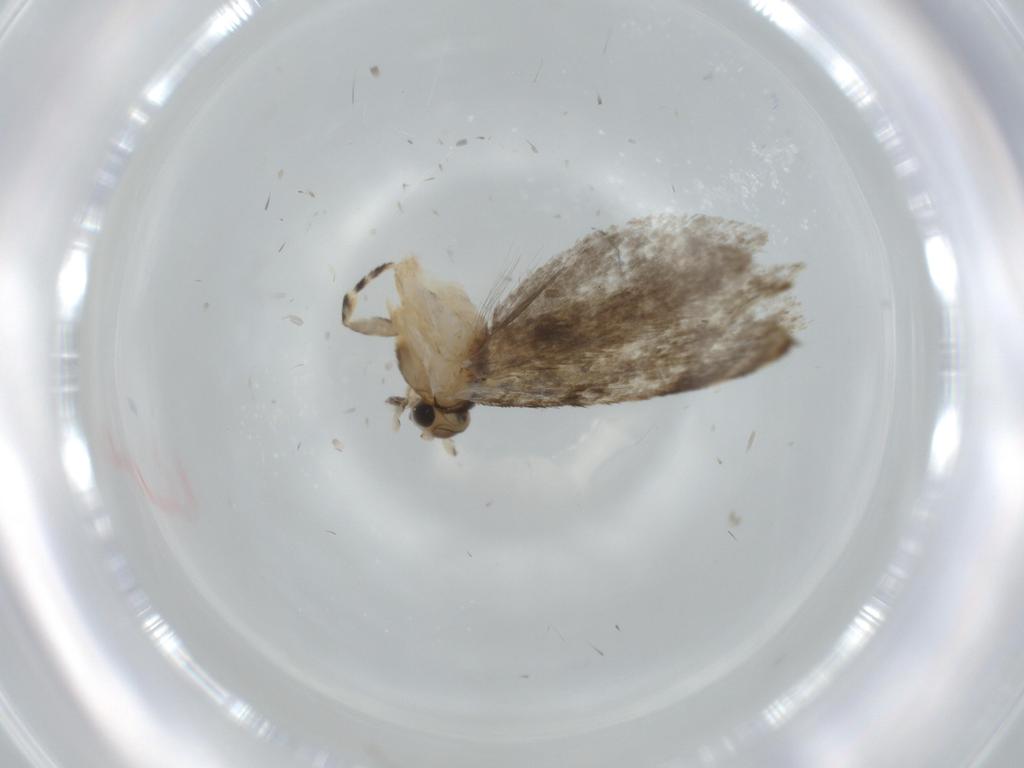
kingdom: Animalia
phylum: Arthropoda
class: Insecta
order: Lepidoptera
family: Tineidae
